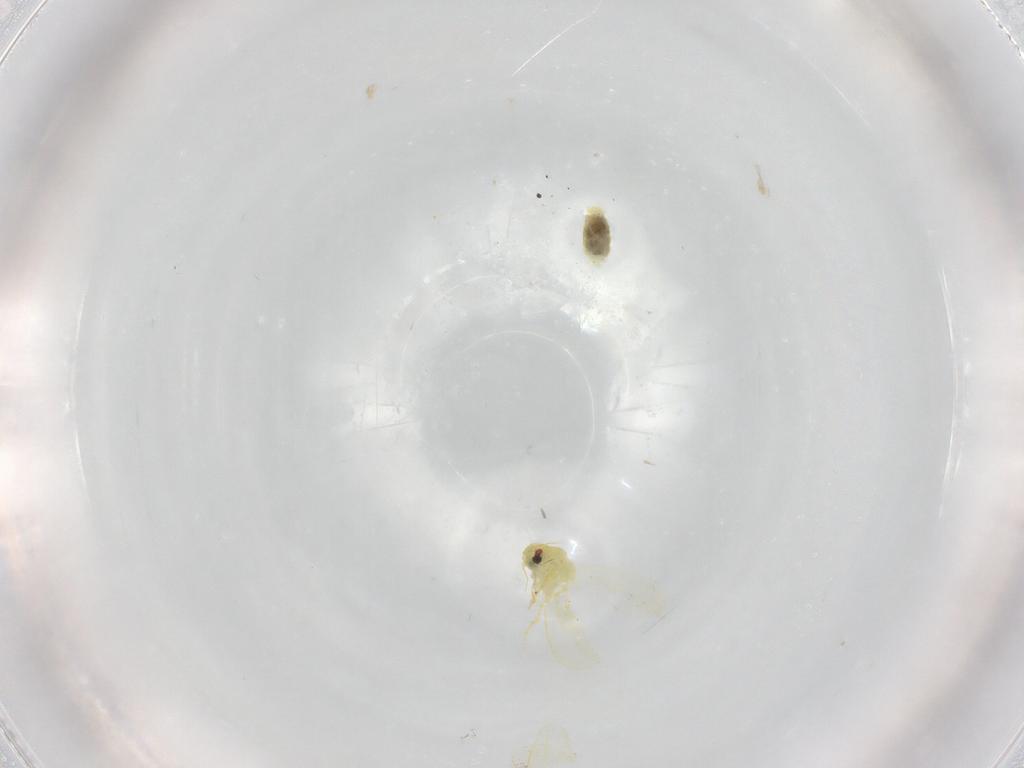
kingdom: Animalia
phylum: Arthropoda
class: Insecta
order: Hemiptera
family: Aleyrodidae
